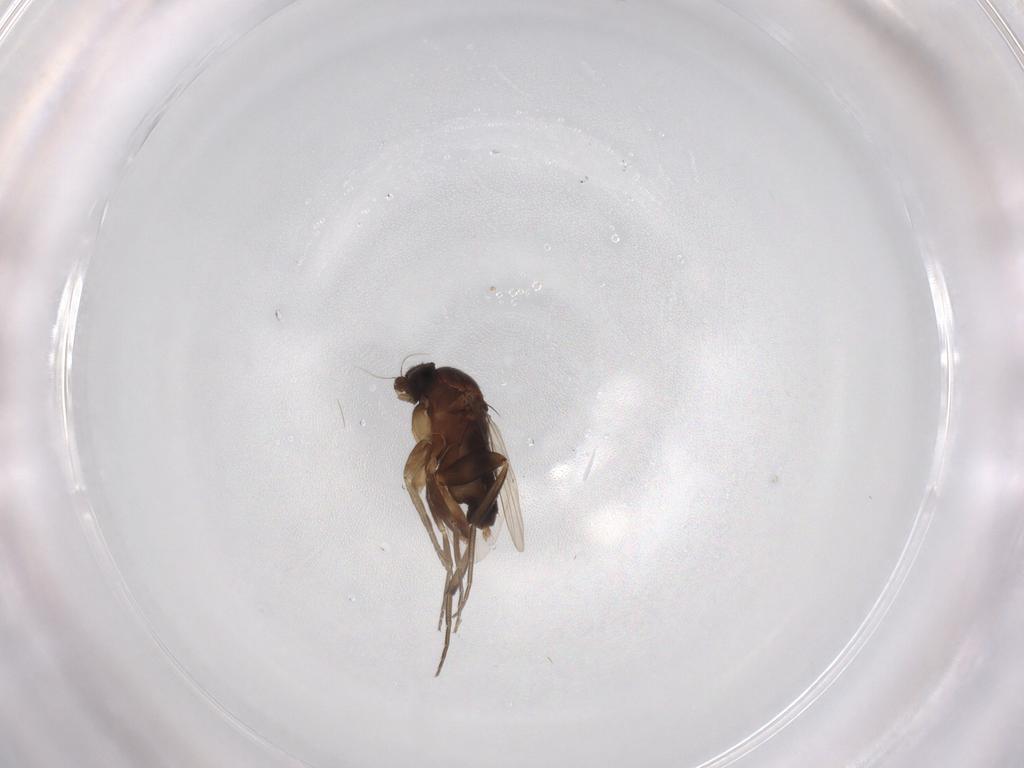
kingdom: Animalia
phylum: Arthropoda
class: Insecta
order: Diptera
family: Phoridae
